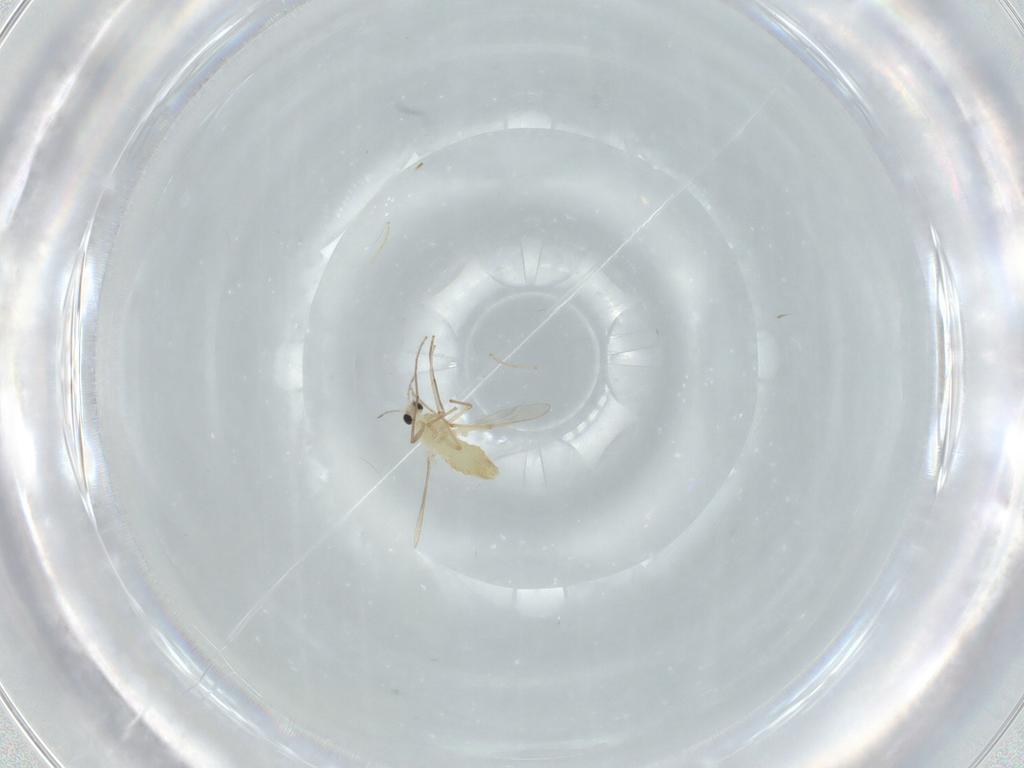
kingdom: Animalia
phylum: Arthropoda
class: Insecta
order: Diptera
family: Chironomidae
